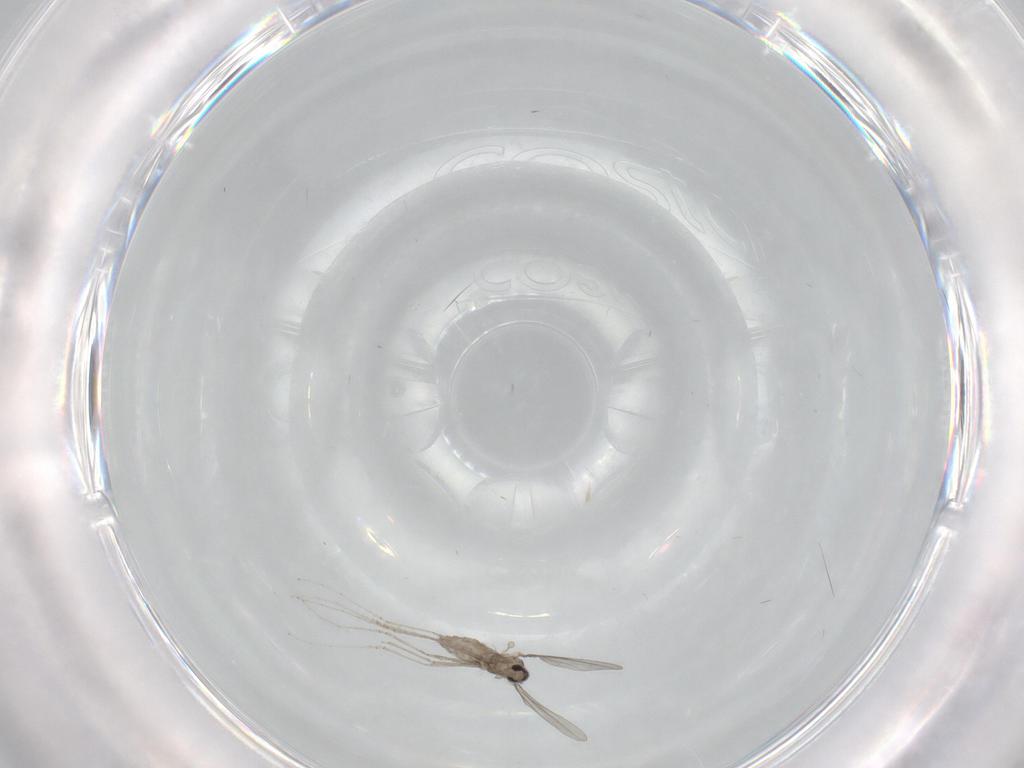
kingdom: Animalia
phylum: Arthropoda
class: Insecta
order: Diptera
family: Cecidomyiidae
